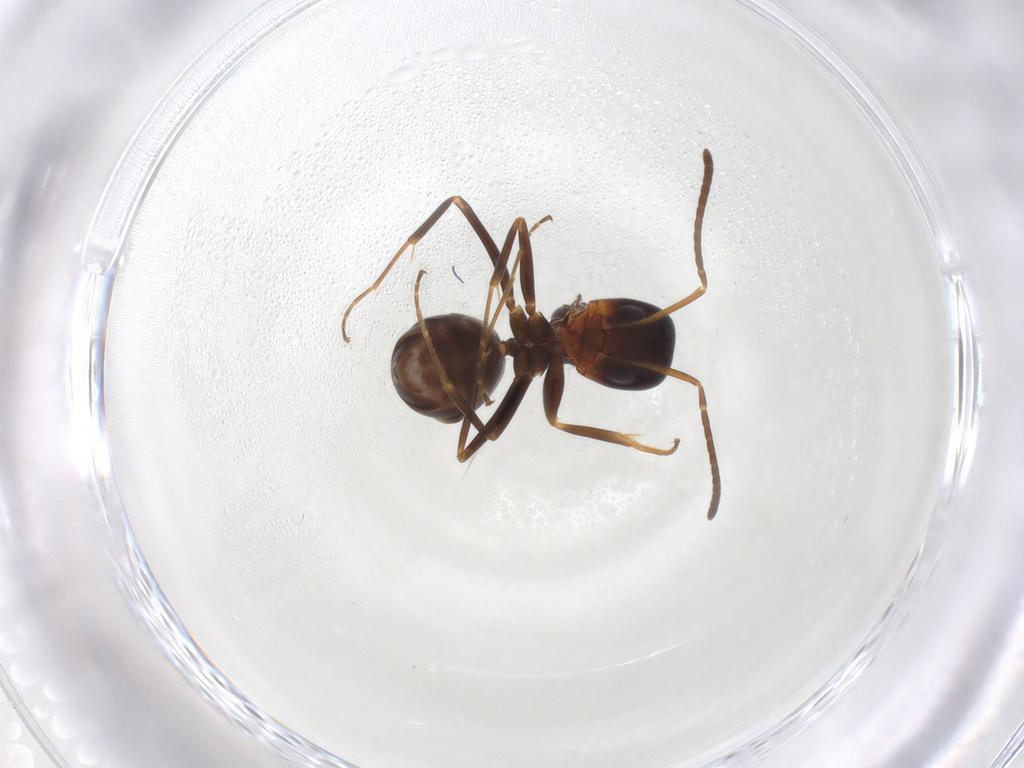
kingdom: Animalia
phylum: Arthropoda
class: Insecta
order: Hymenoptera
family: Formicidae
